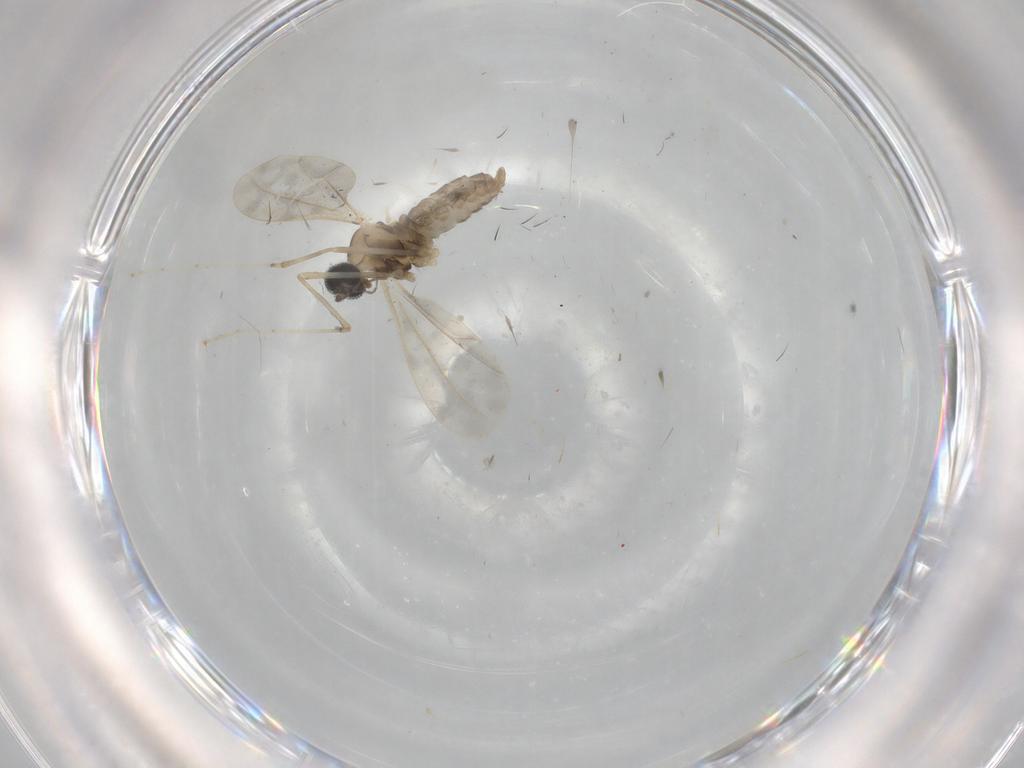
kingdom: Animalia
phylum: Arthropoda
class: Insecta
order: Diptera
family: Cecidomyiidae
